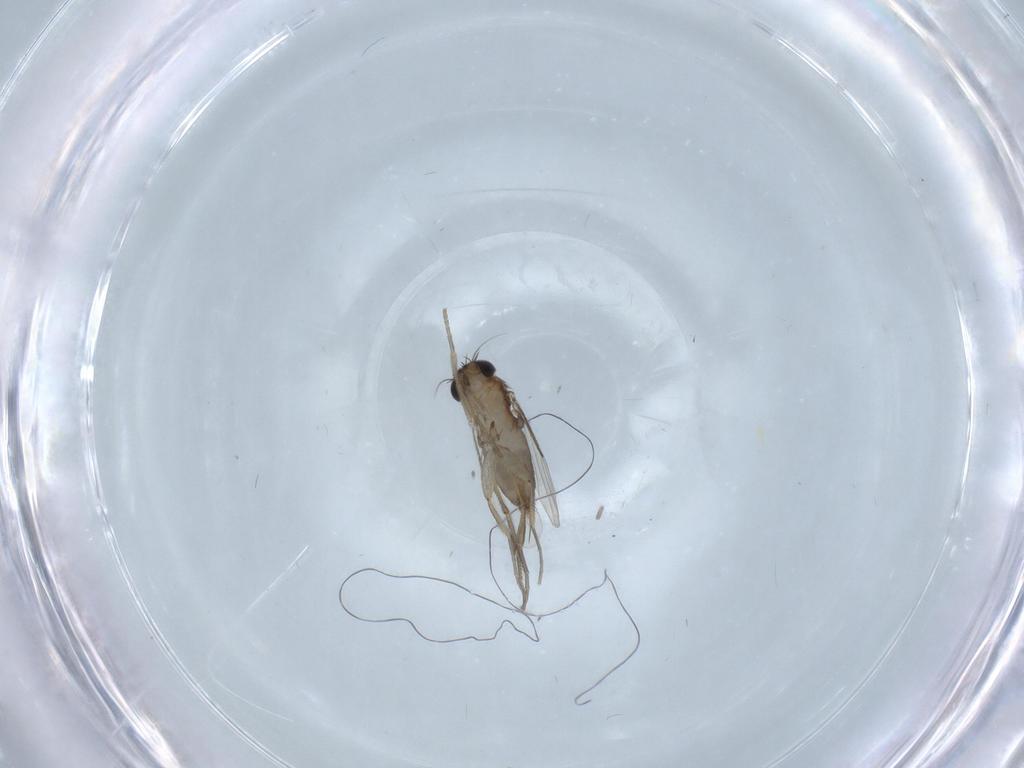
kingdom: Animalia
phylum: Arthropoda
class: Insecta
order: Diptera
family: Phoridae
